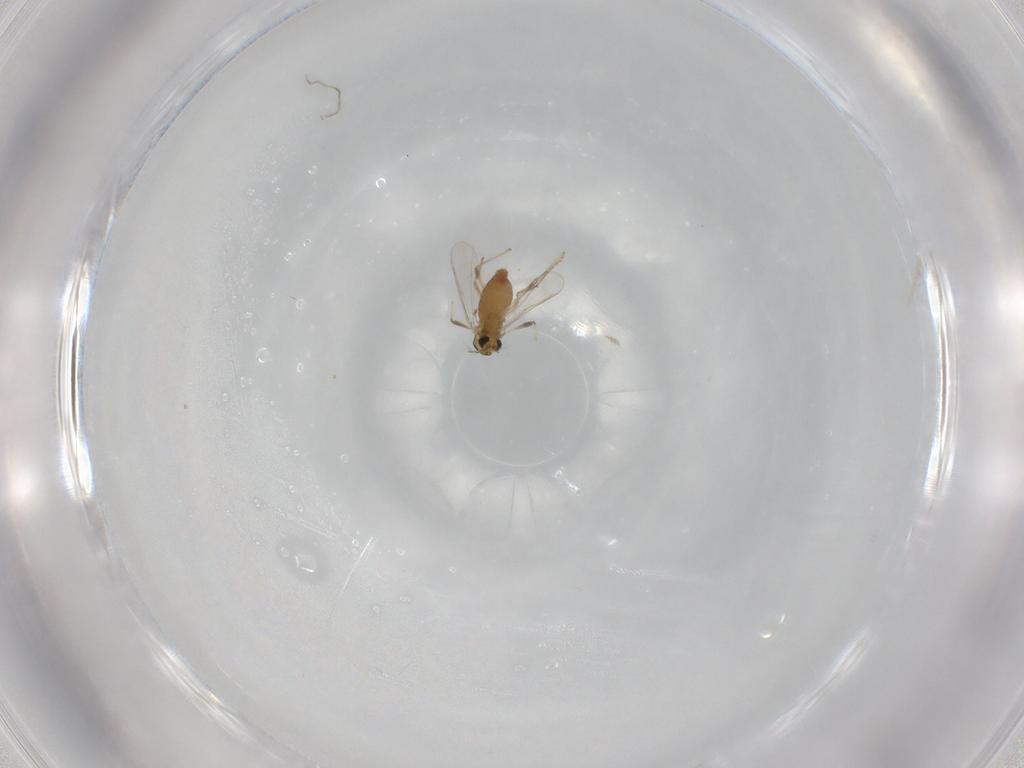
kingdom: Animalia
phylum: Arthropoda
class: Insecta
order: Diptera
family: Chironomidae
